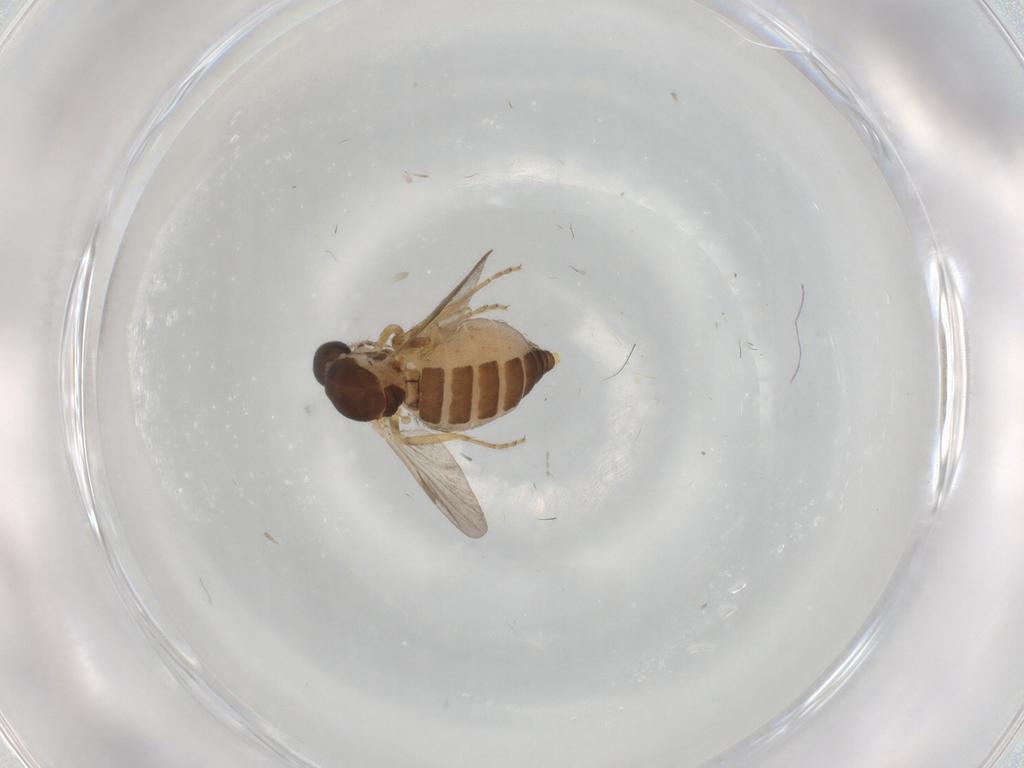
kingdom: Animalia
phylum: Arthropoda
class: Insecta
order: Diptera
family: Ceratopogonidae
